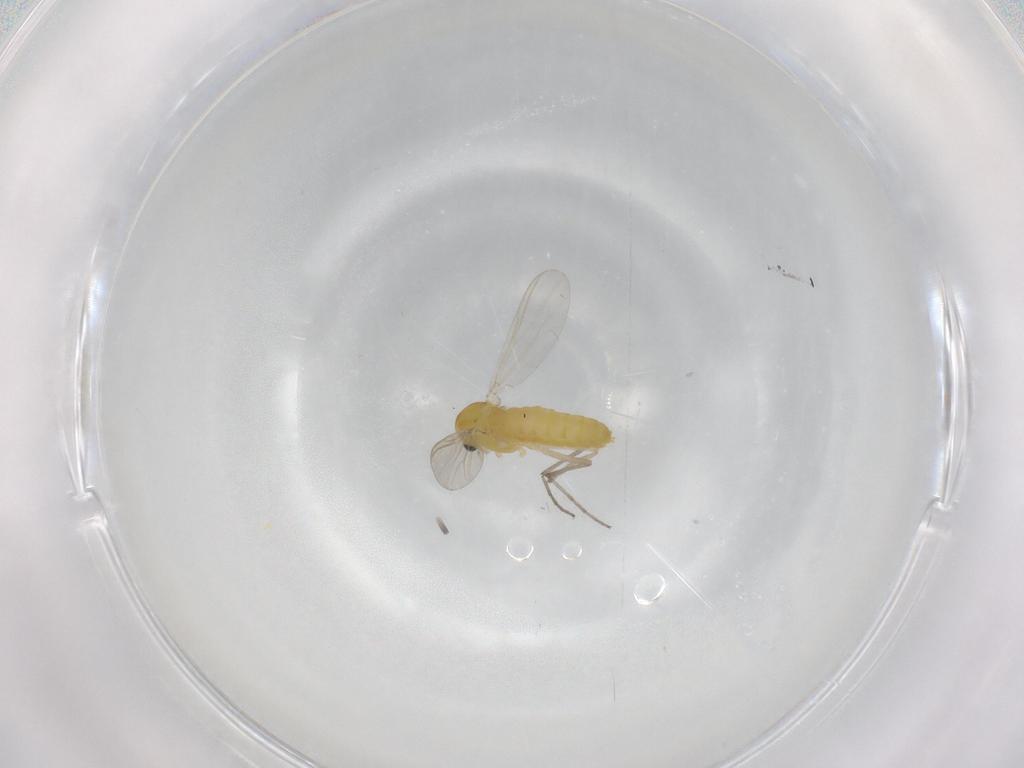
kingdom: Animalia
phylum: Arthropoda
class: Insecta
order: Diptera
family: Chironomidae
